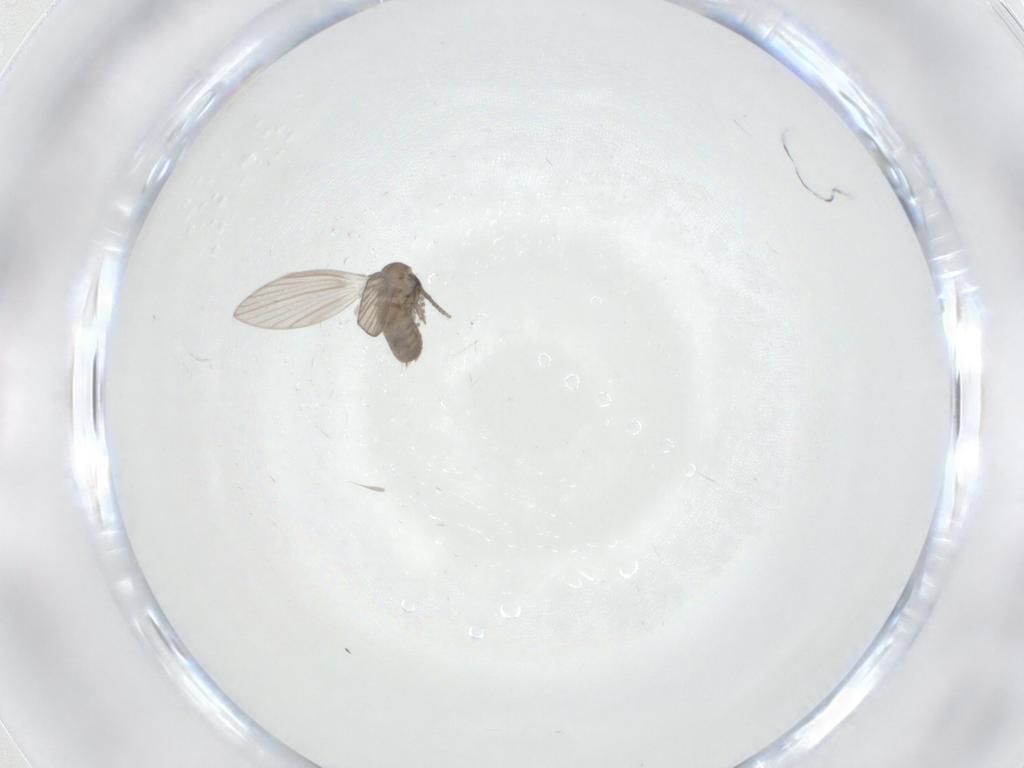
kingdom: Animalia
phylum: Arthropoda
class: Insecta
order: Diptera
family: Psychodidae
